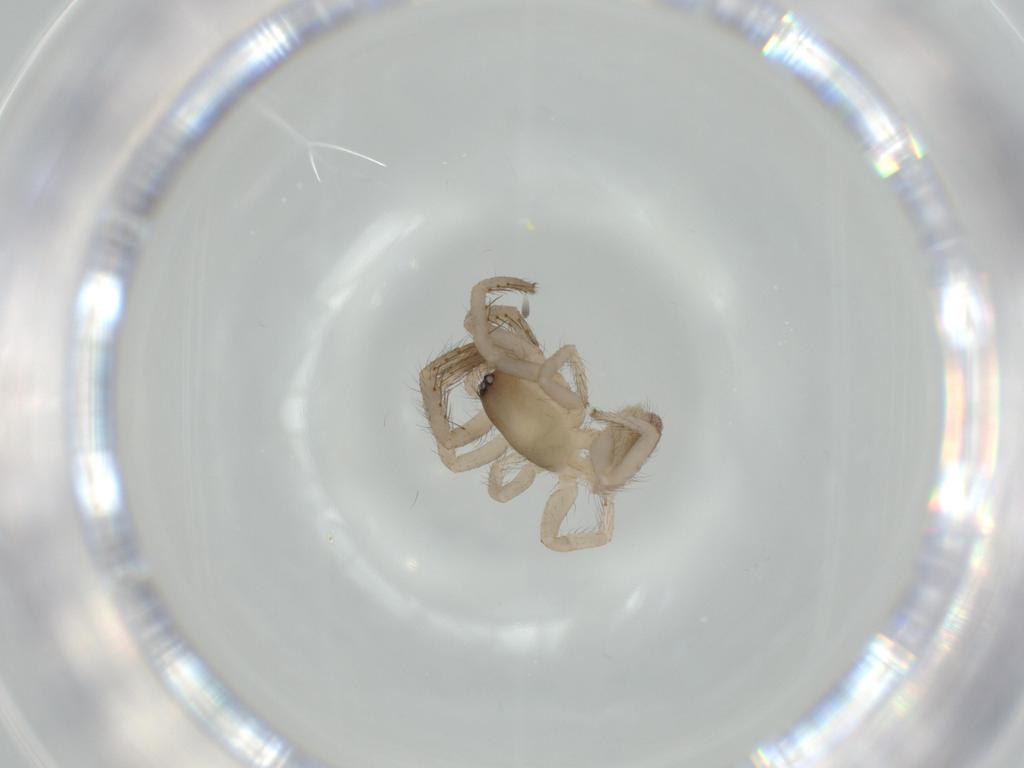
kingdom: Animalia
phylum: Arthropoda
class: Arachnida
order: Araneae
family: Segestriidae
